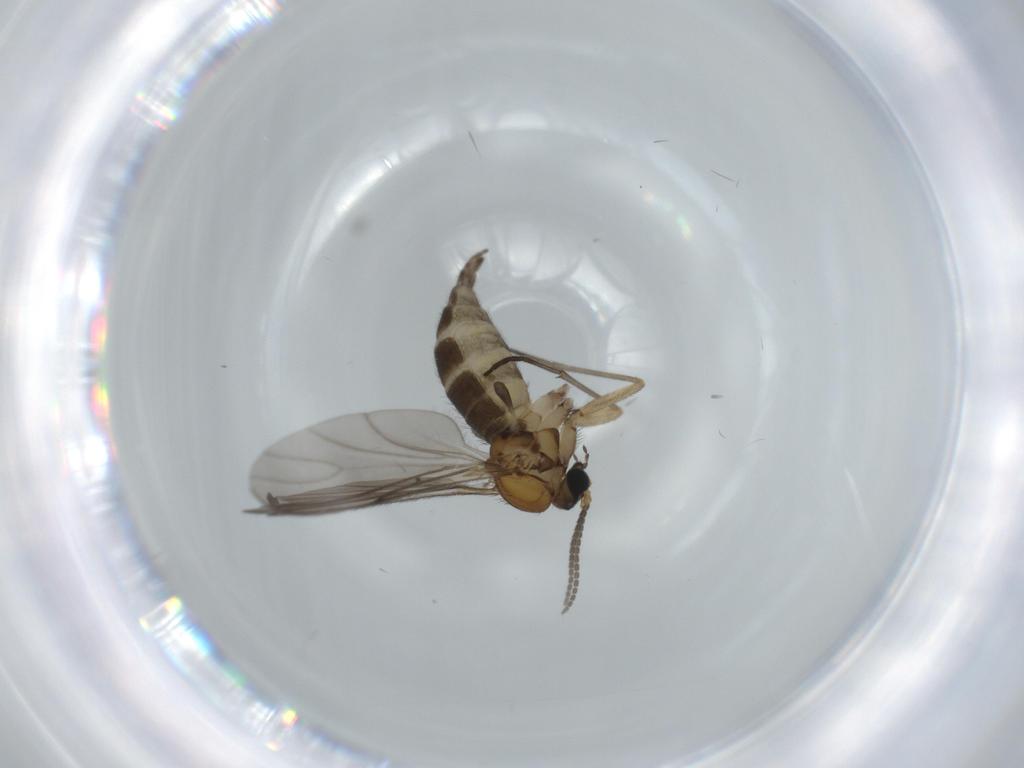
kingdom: Animalia
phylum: Arthropoda
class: Insecta
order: Diptera
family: Sciaridae
